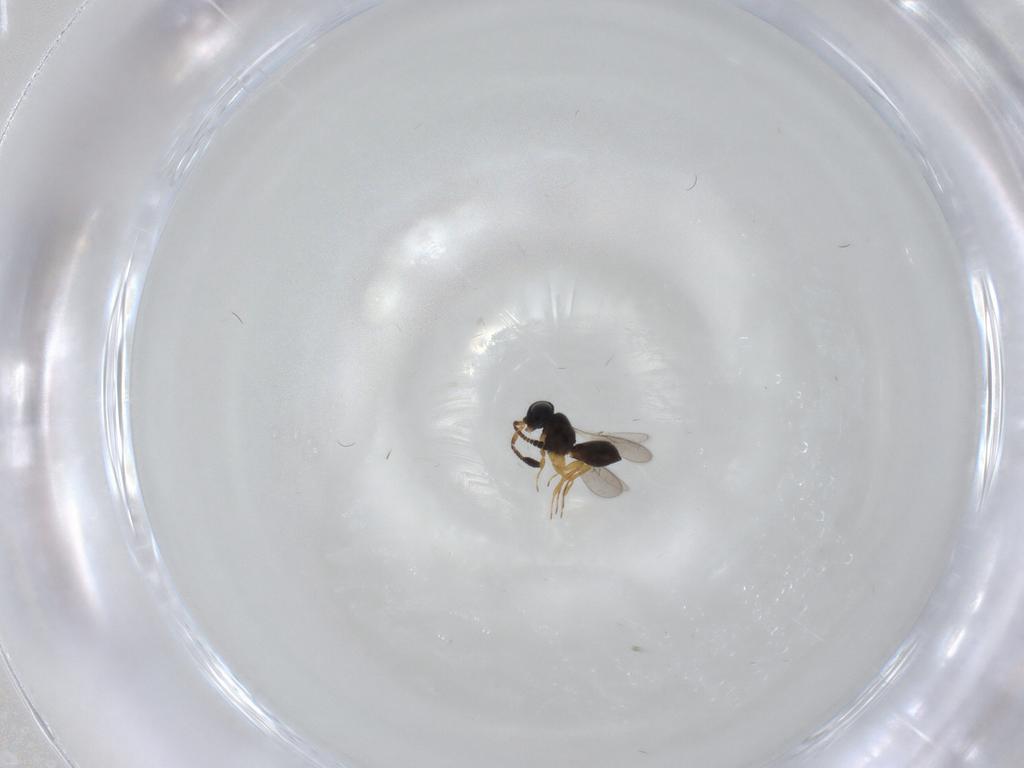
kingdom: Animalia
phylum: Arthropoda
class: Insecta
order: Hymenoptera
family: Scelionidae
